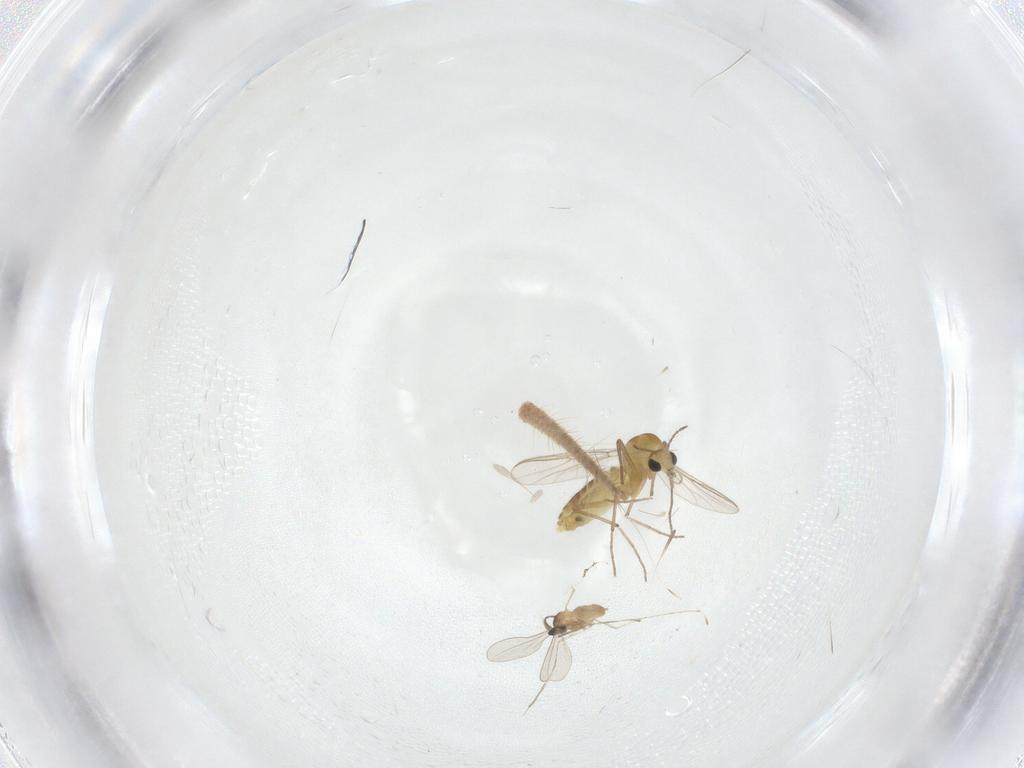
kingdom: Animalia
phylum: Arthropoda
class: Insecta
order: Diptera
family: Chironomidae
